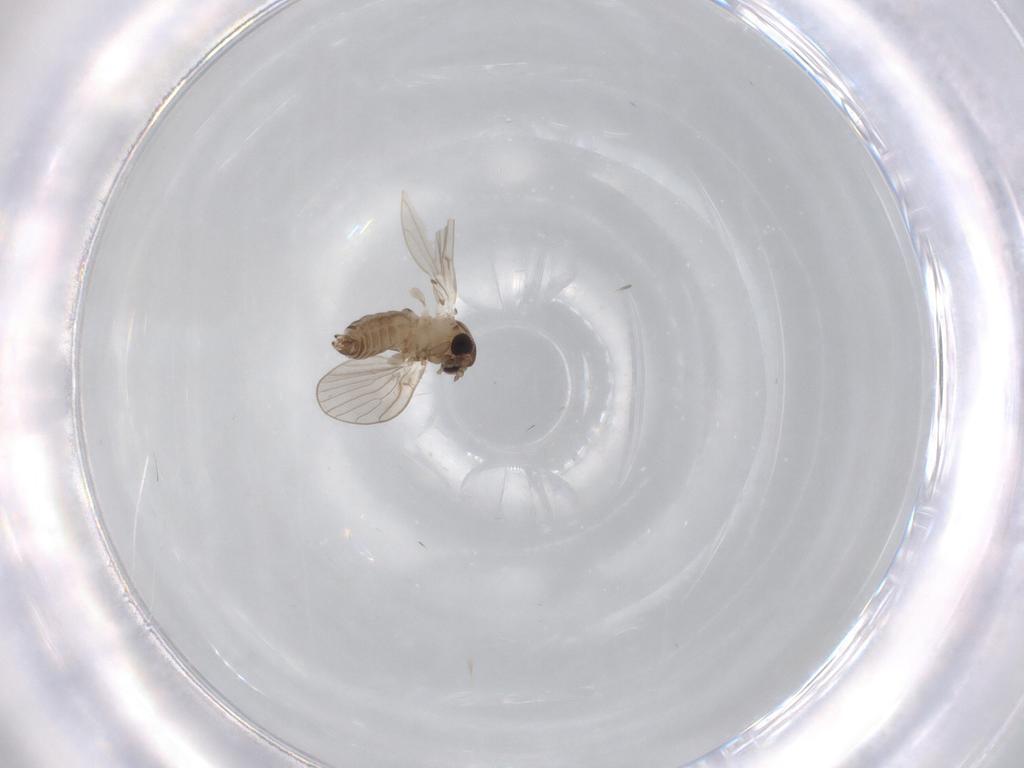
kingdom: Animalia
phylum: Arthropoda
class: Insecta
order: Diptera
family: Psychodidae
